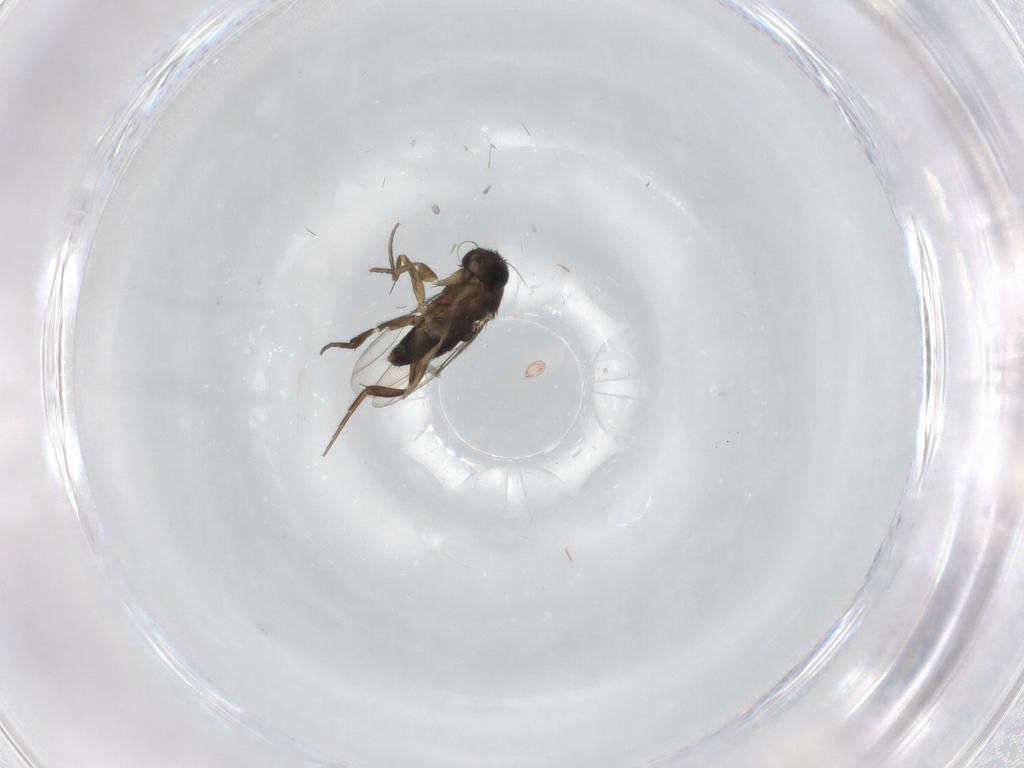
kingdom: Animalia
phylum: Arthropoda
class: Insecta
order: Diptera
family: Phoridae
